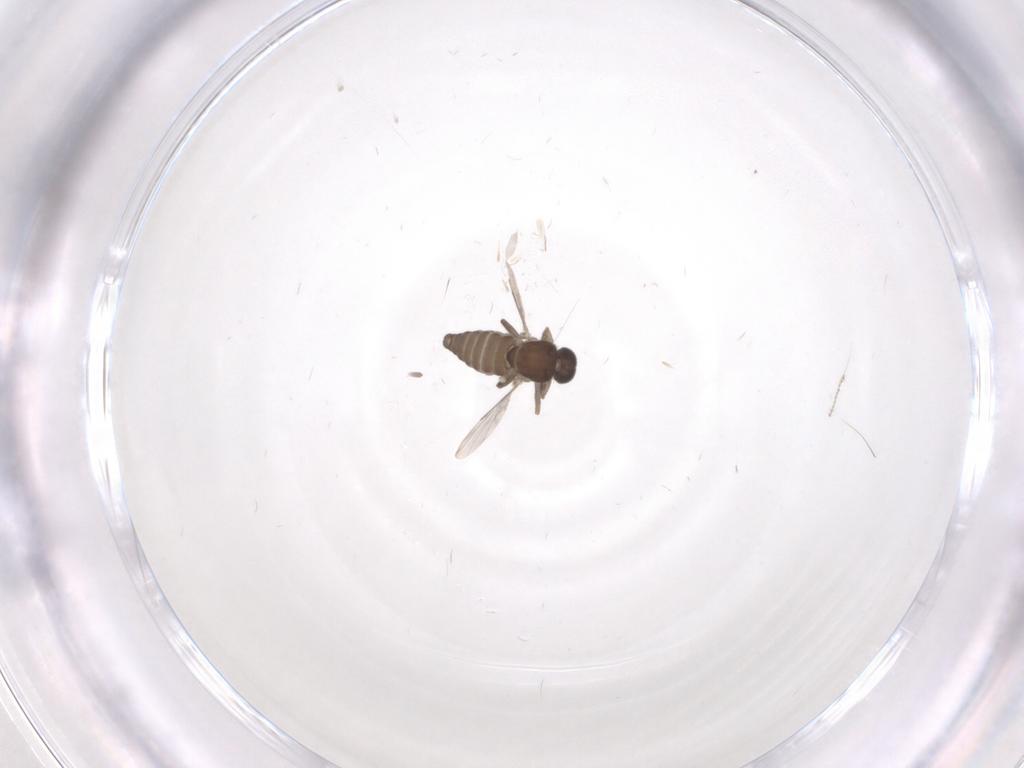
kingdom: Animalia
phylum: Arthropoda
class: Insecta
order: Diptera
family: Ceratopogonidae
